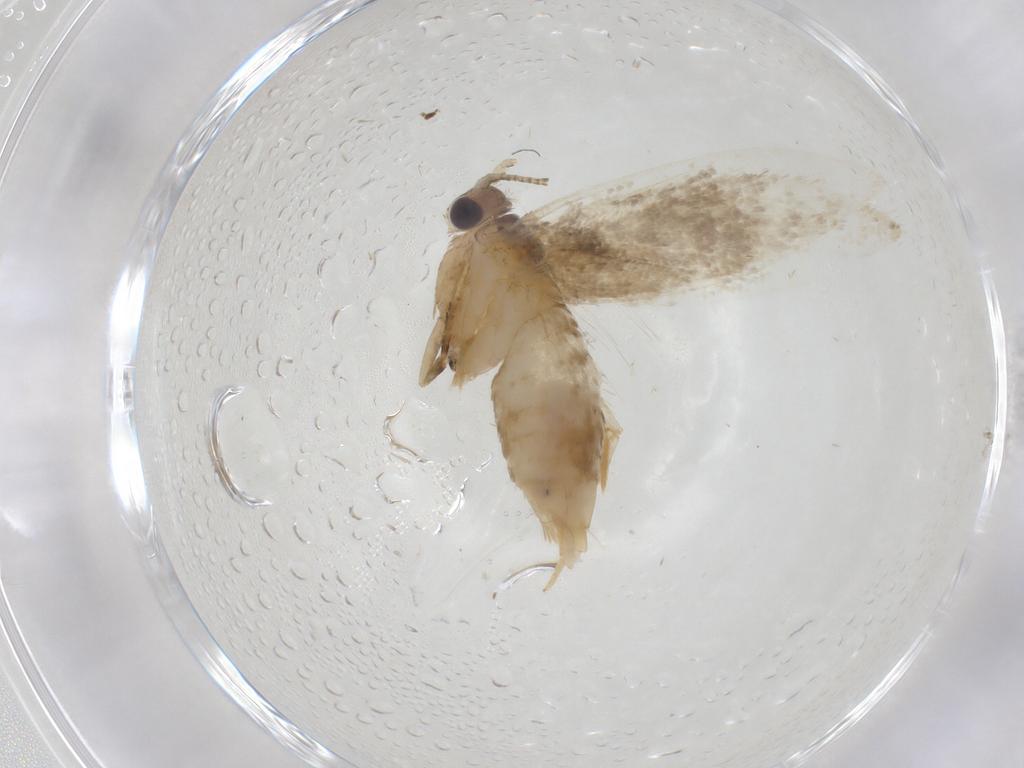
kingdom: Animalia
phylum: Arthropoda
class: Insecta
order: Lepidoptera
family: Tineidae
